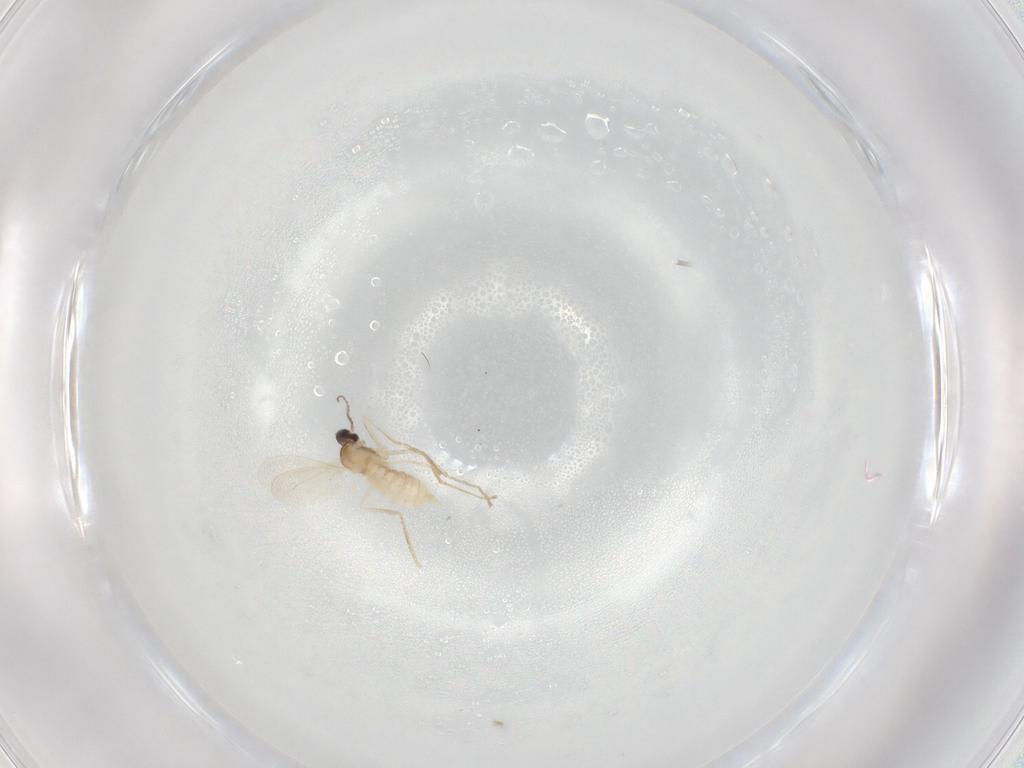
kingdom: Animalia
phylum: Arthropoda
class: Insecta
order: Diptera
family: Cecidomyiidae
